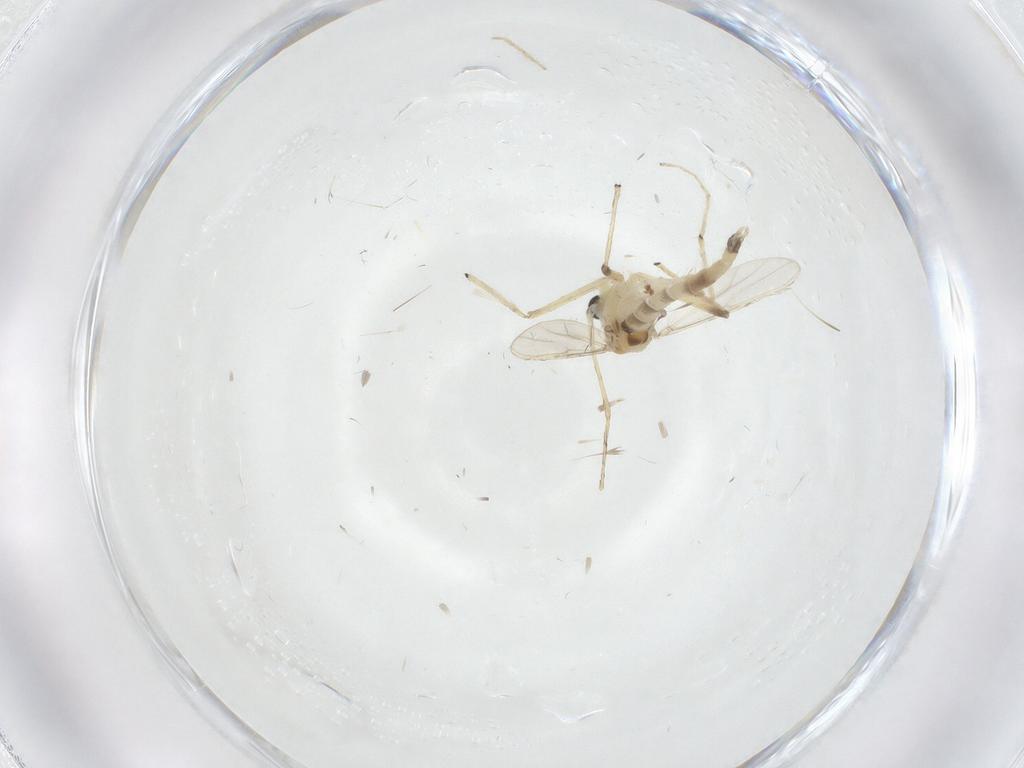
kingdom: Animalia
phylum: Arthropoda
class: Insecta
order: Diptera
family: Chironomidae
